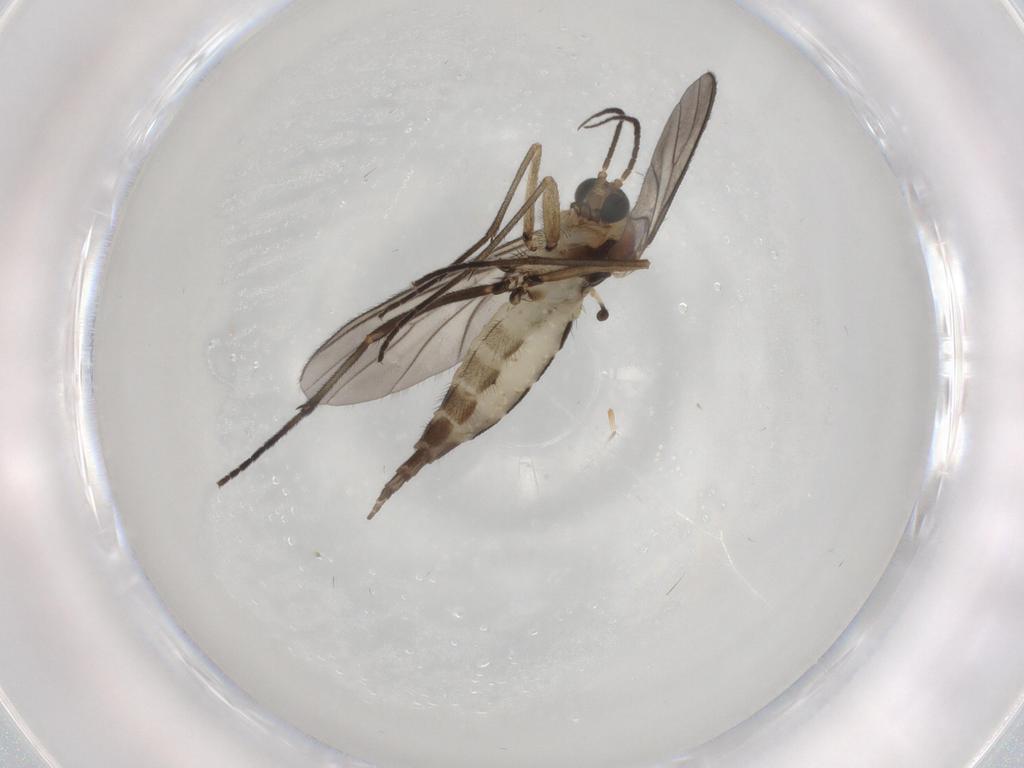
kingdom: Animalia
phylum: Arthropoda
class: Insecta
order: Diptera
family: Sciaridae
